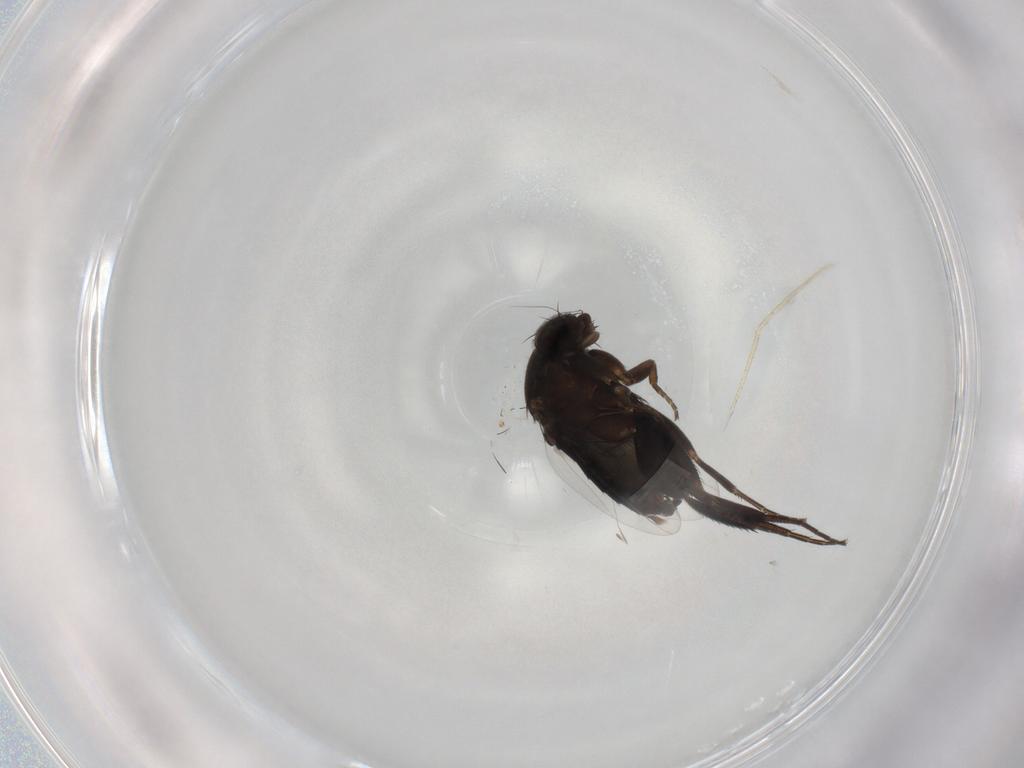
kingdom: Animalia
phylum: Arthropoda
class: Insecta
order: Diptera
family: Phoridae
